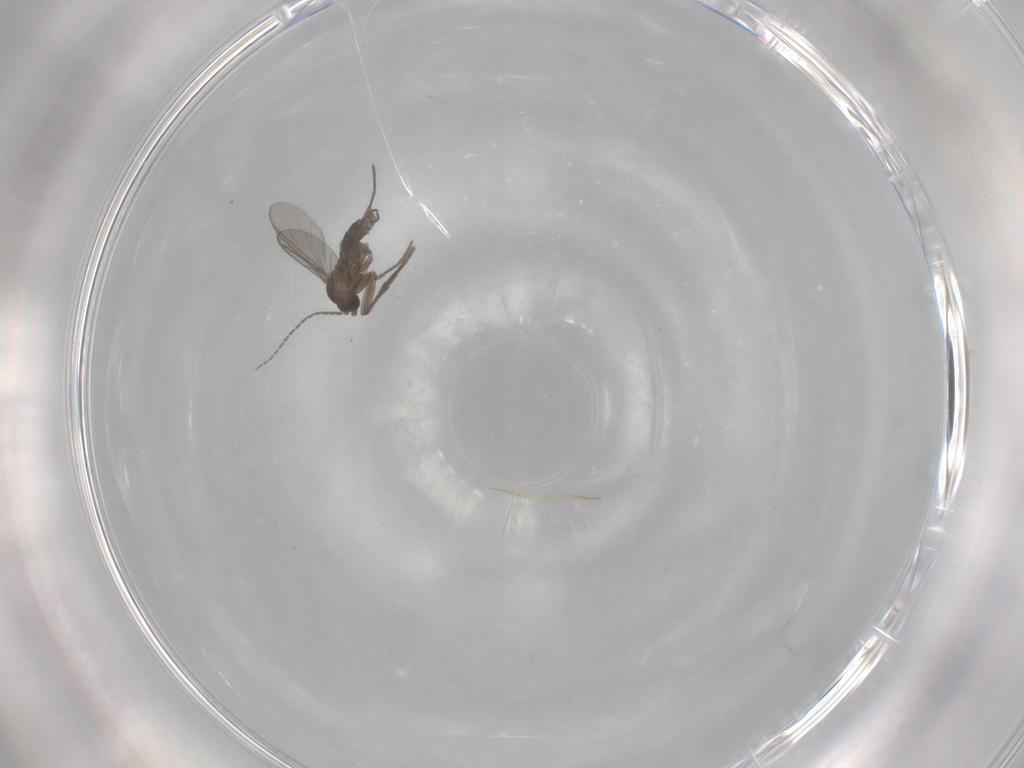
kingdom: Animalia
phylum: Arthropoda
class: Insecta
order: Diptera
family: Sciaridae
